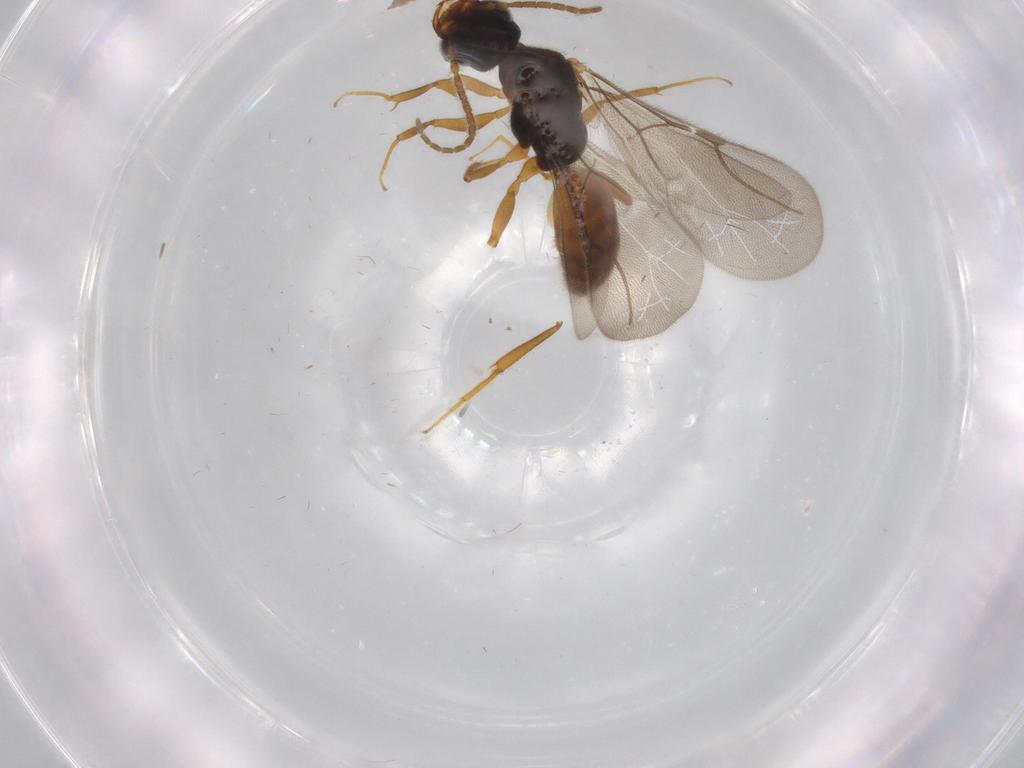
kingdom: Animalia
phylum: Arthropoda
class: Insecta
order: Hymenoptera
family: Bethylidae
